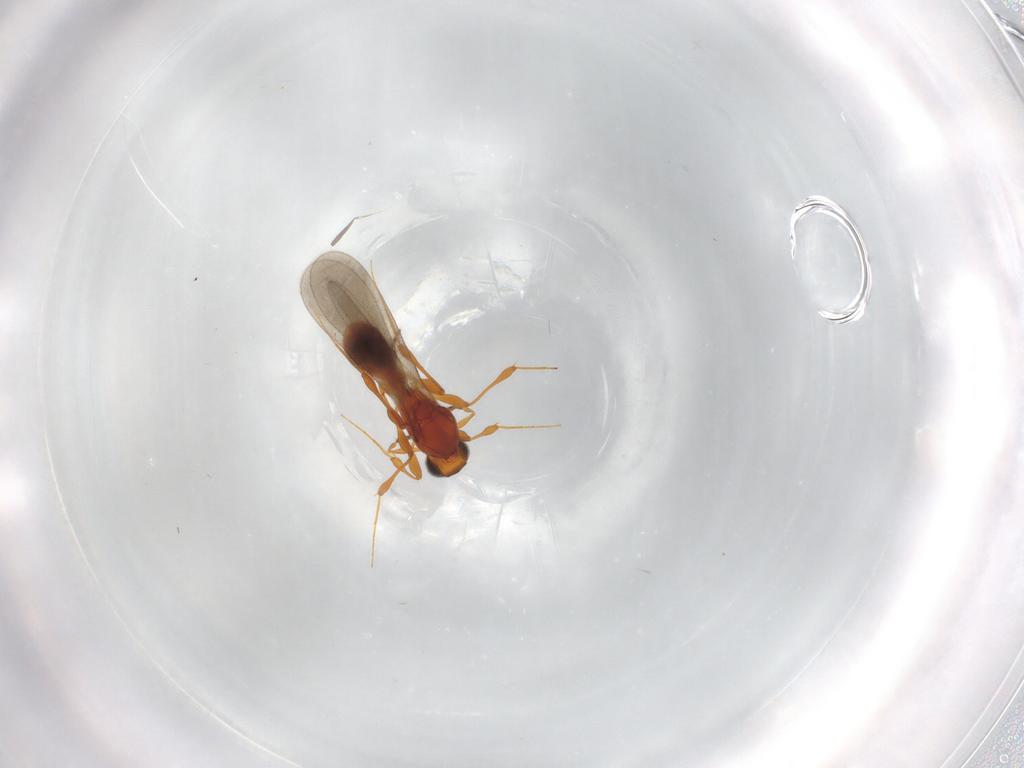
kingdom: Animalia
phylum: Arthropoda
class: Insecta
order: Hymenoptera
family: Platygastridae
